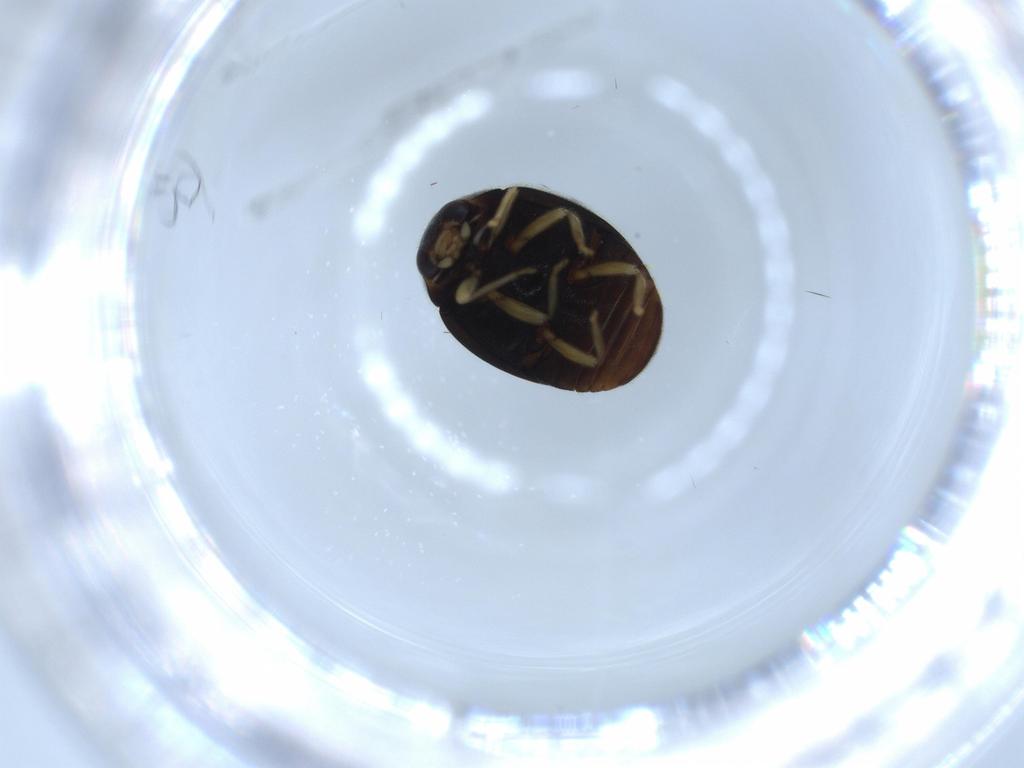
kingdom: Animalia
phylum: Arthropoda
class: Insecta
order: Coleoptera
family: Coccinellidae
